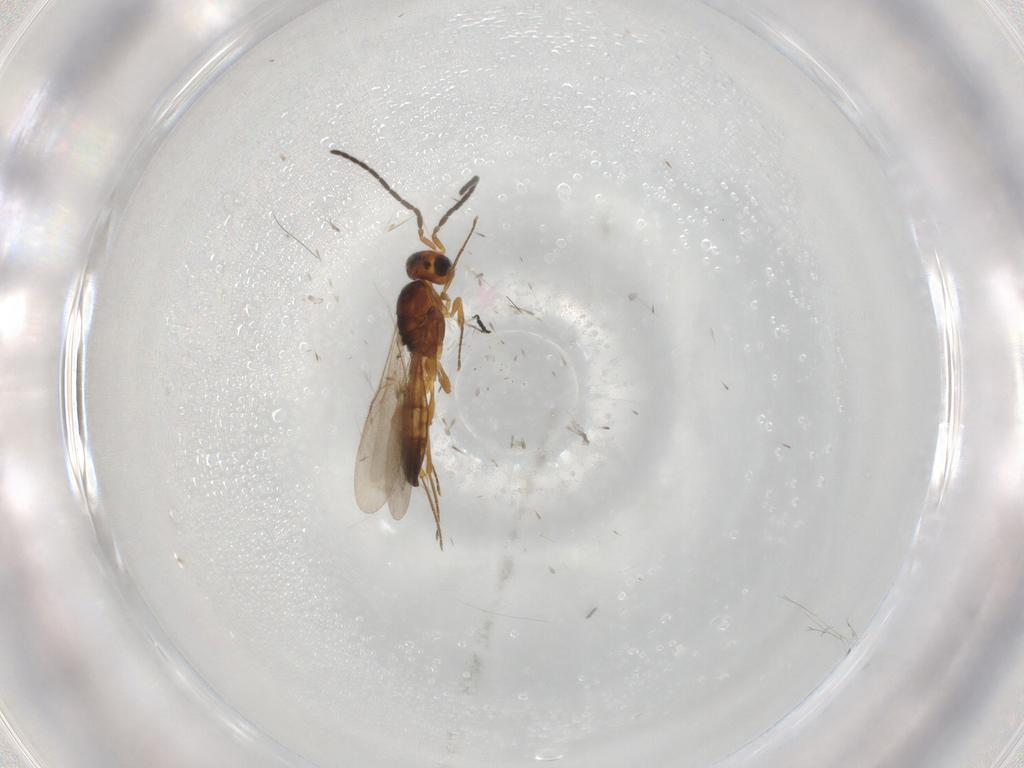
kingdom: Animalia
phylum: Arthropoda
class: Insecta
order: Hymenoptera
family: Scelionidae
